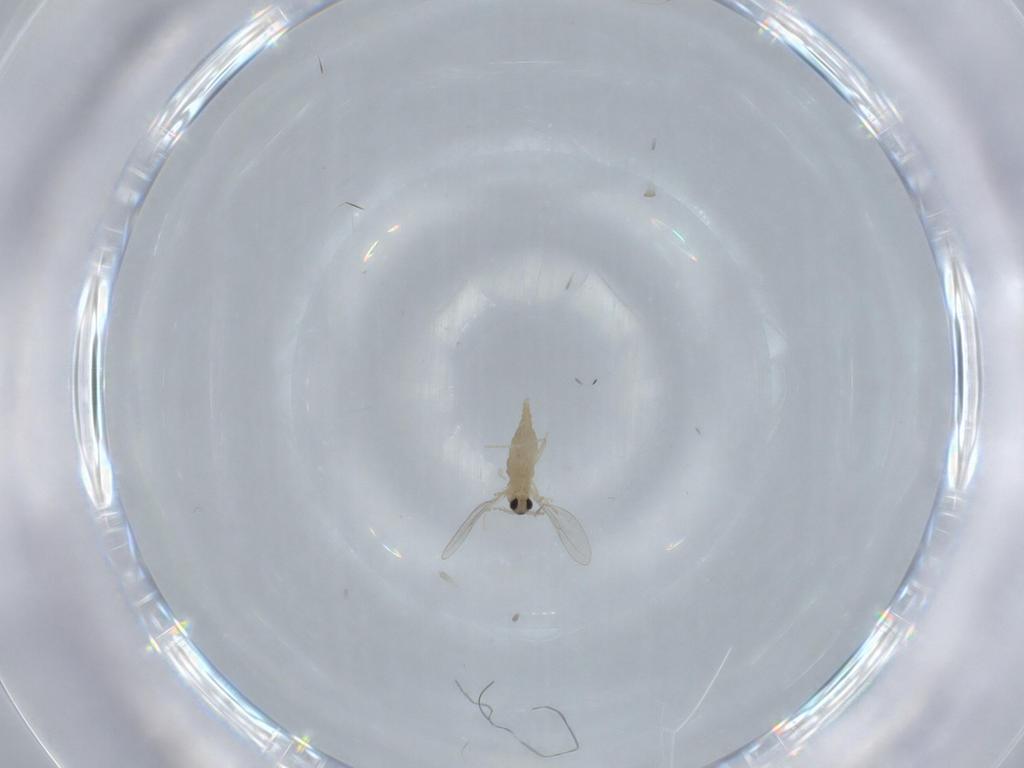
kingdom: Animalia
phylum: Arthropoda
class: Insecta
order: Diptera
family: Cecidomyiidae
